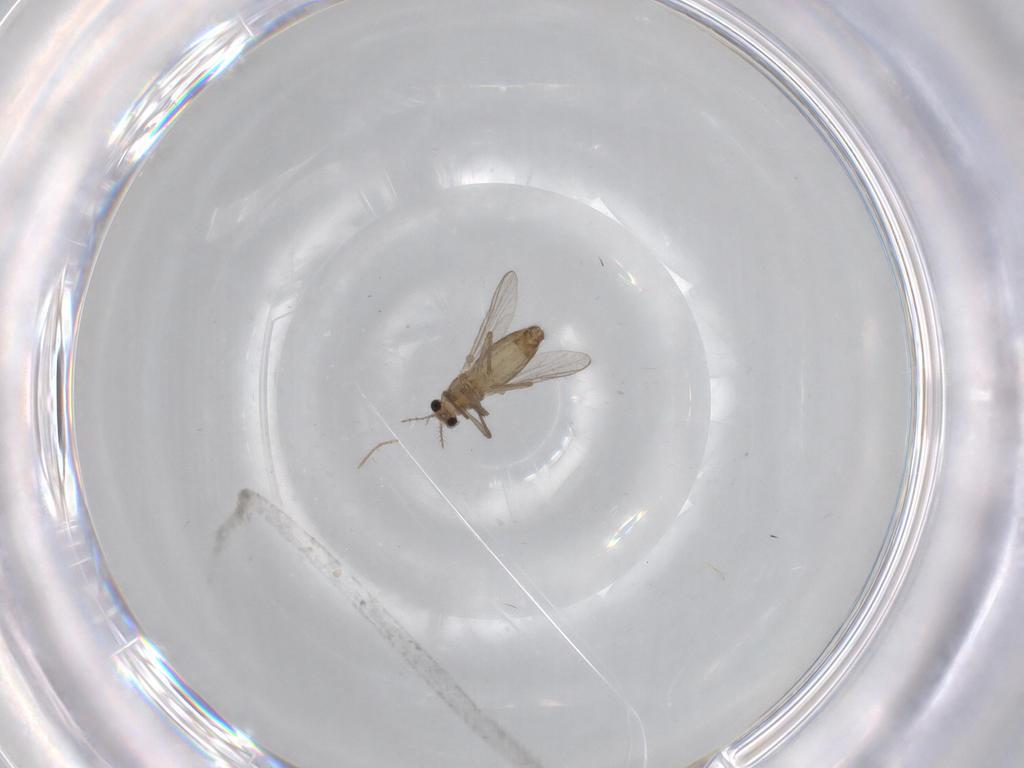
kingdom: Animalia
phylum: Arthropoda
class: Insecta
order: Diptera
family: Chironomidae
